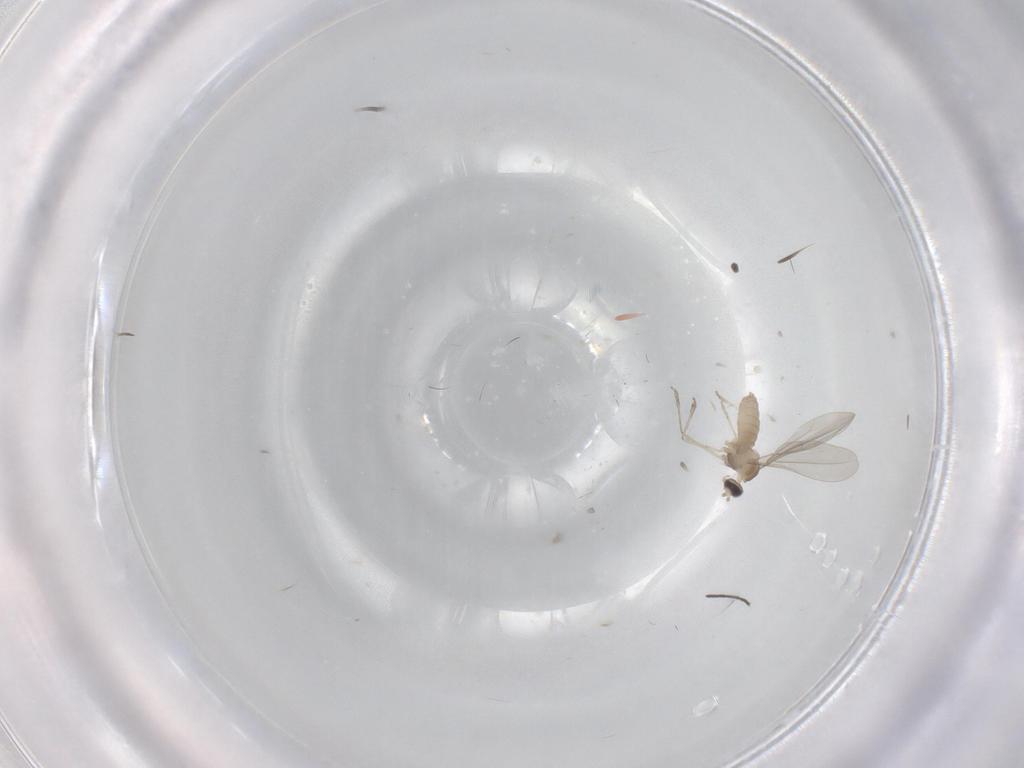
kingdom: Animalia
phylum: Arthropoda
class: Insecta
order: Diptera
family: Cecidomyiidae
